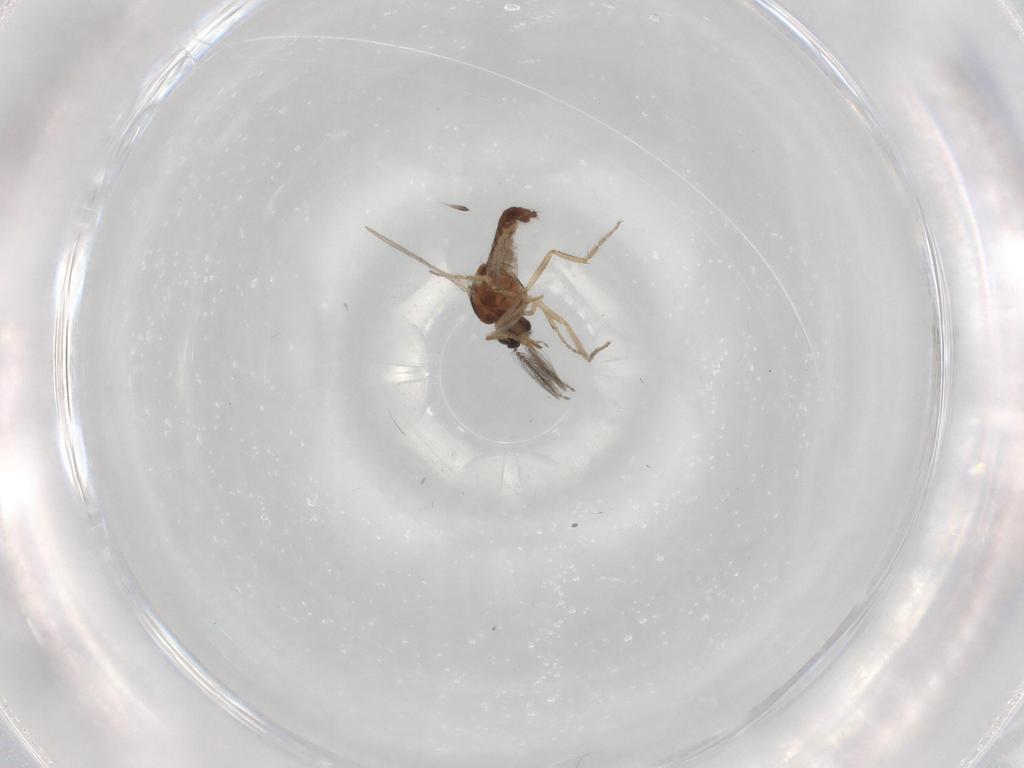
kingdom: Animalia
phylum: Arthropoda
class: Insecta
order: Diptera
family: Ceratopogonidae
